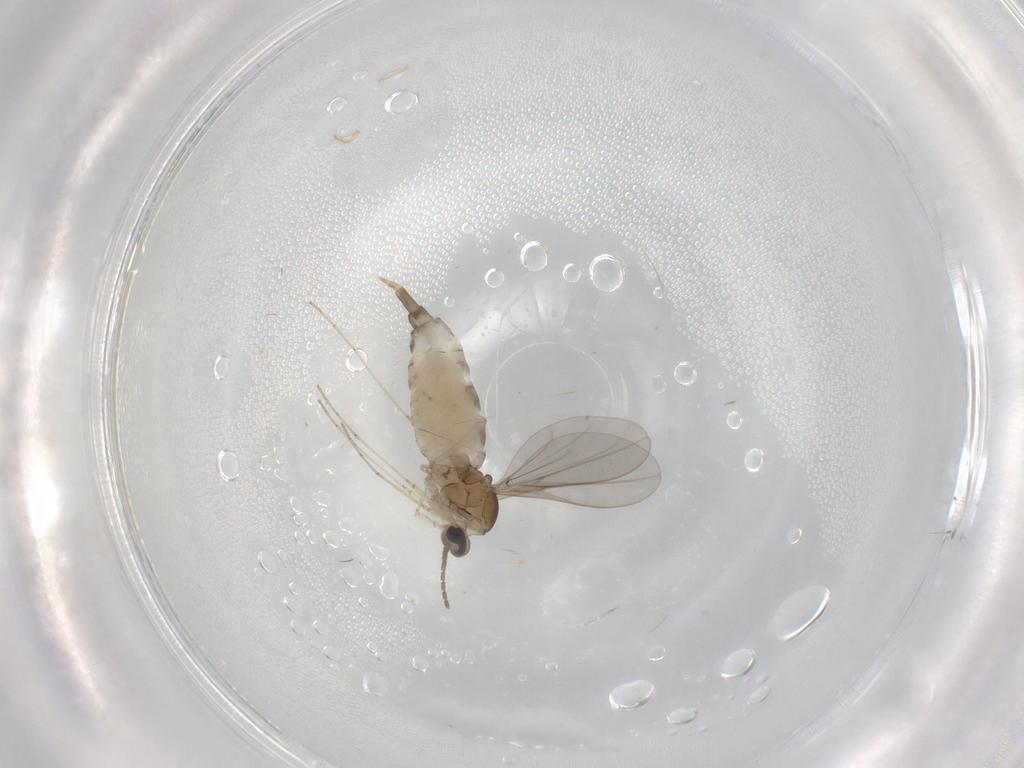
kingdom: Animalia
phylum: Arthropoda
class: Insecta
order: Diptera
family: Cecidomyiidae
